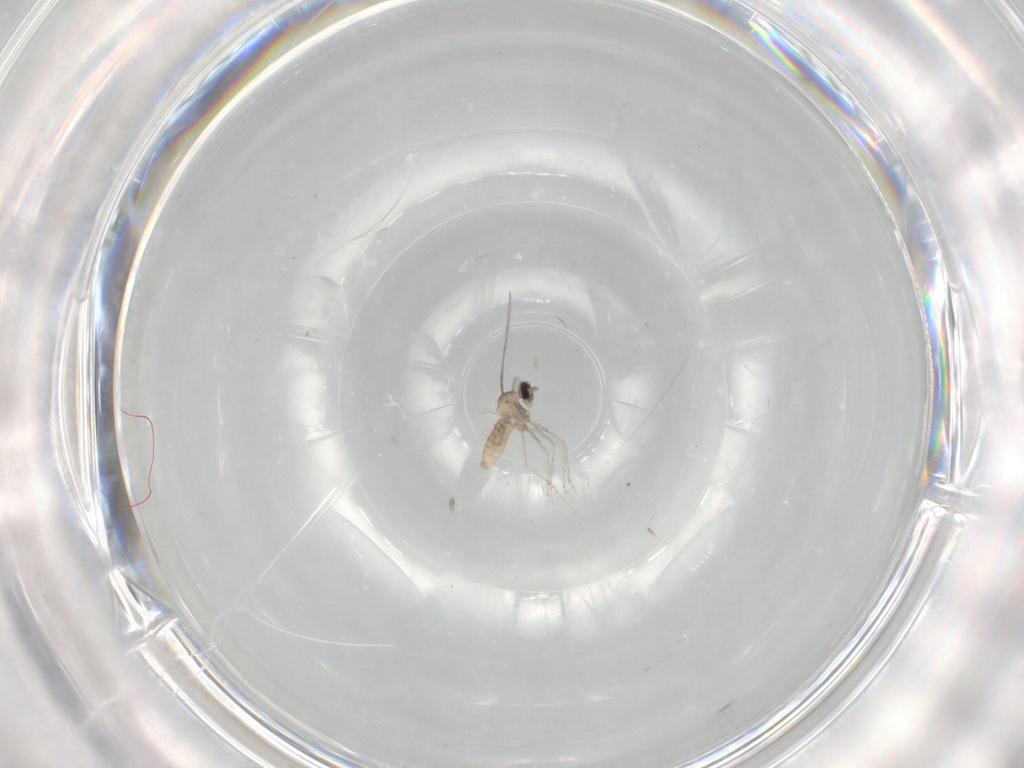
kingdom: Animalia
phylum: Arthropoda
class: Insecta
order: Diptera
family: Cecidomyiidae
